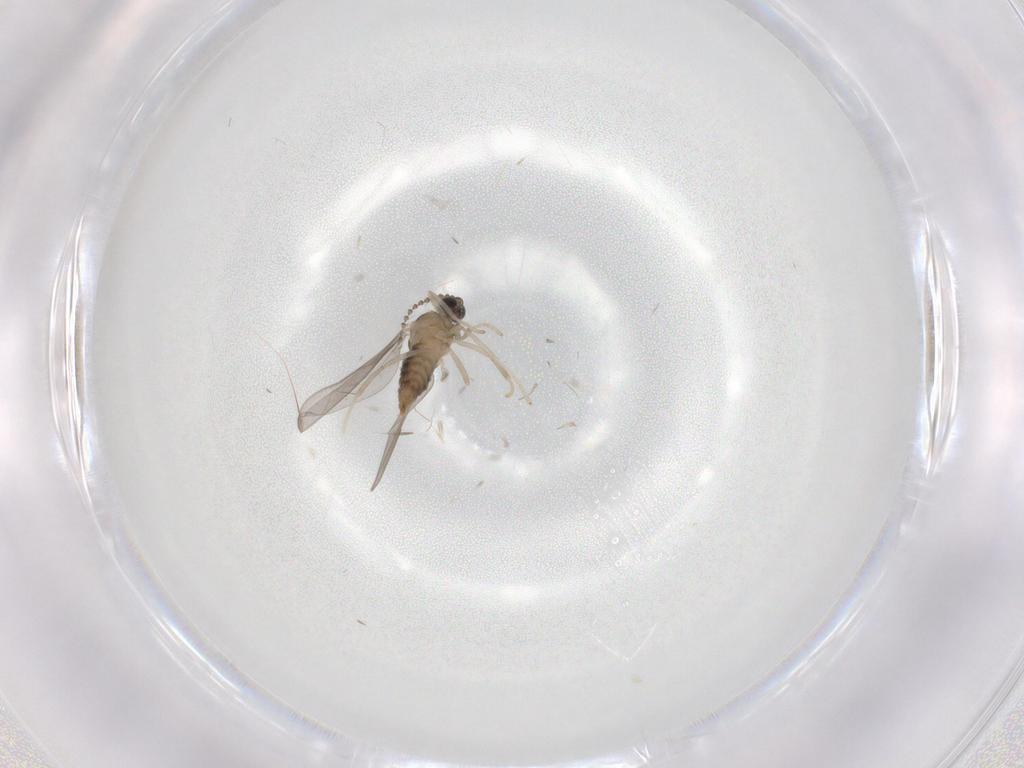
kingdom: Animalia
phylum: Arthropoda
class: Insecta
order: Diptera
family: Cecidomyiidae
